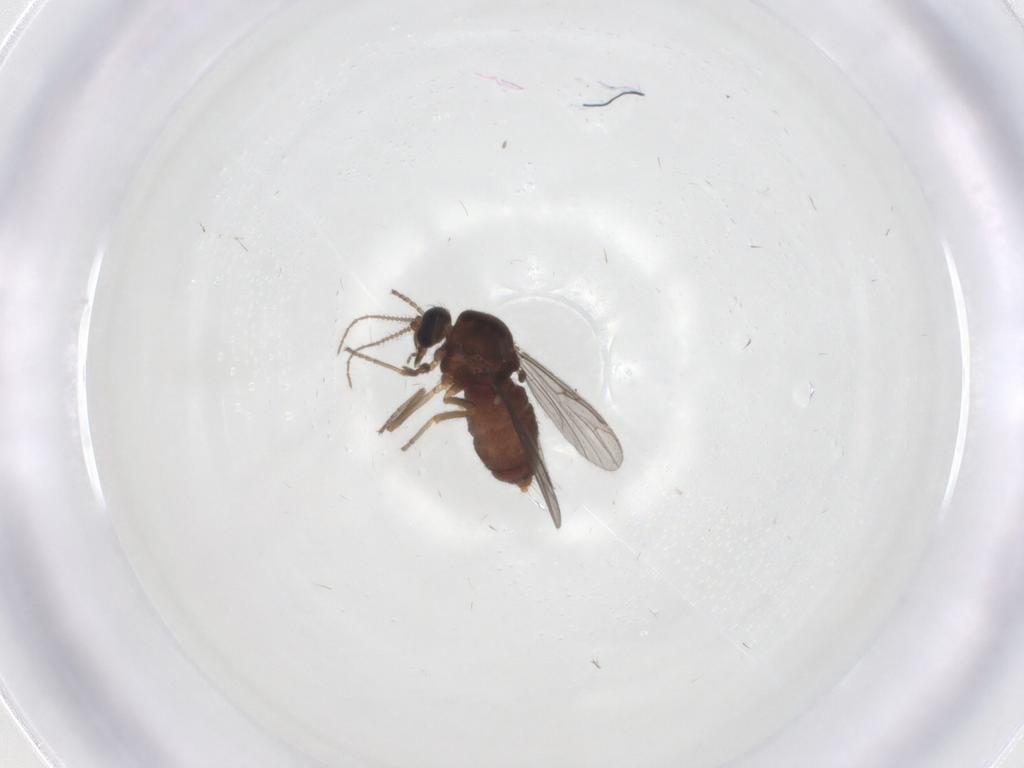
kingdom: Animalia
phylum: Arthropoda
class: Insecta
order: Diptera
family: Ceratopogonidae
